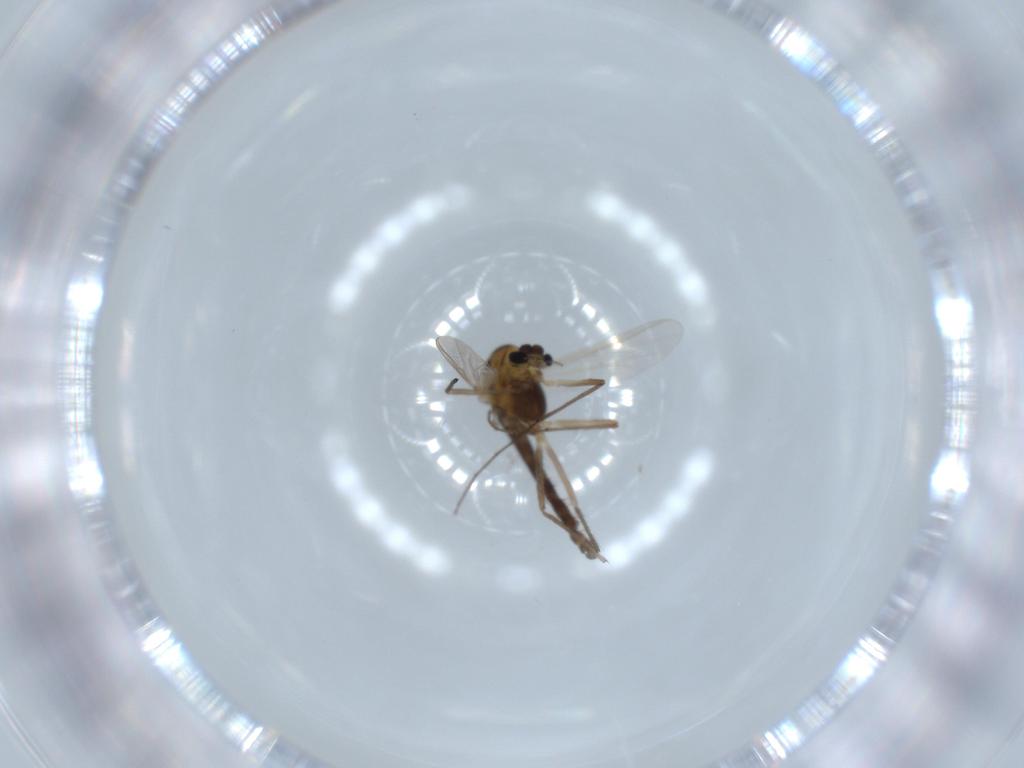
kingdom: Animalia
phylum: Arthropoda
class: Insecta
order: Diptera
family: Chironomidae
